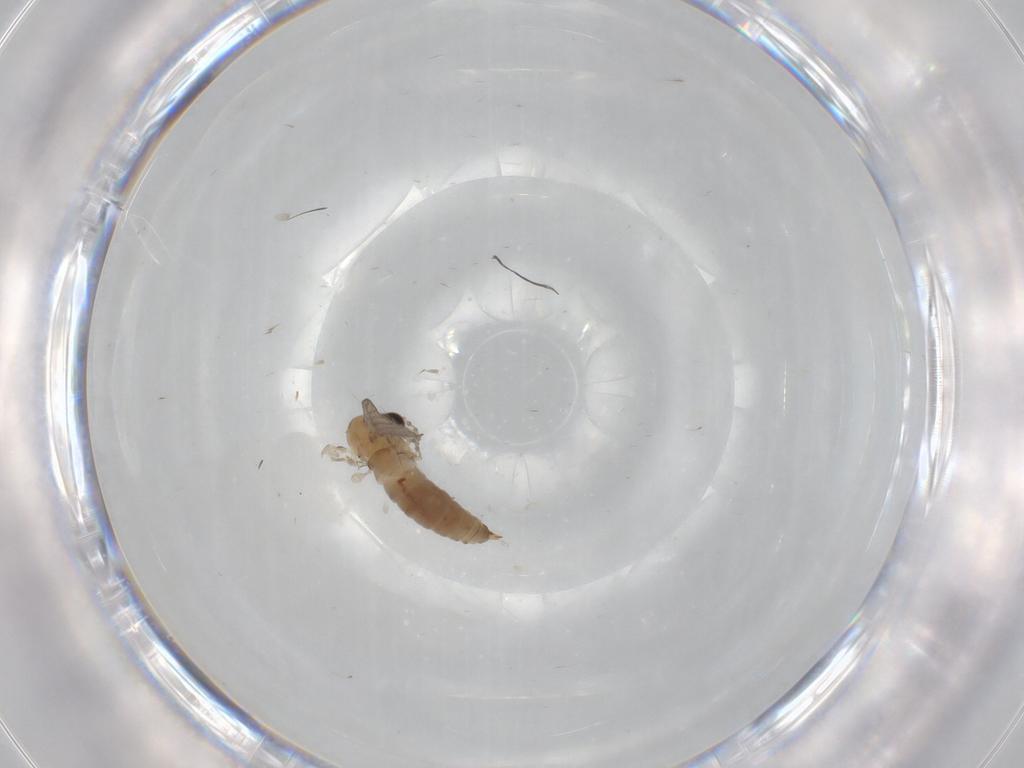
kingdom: Animalia
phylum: Arthropoda
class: Insecta
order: Diptera
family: Psychodidae
